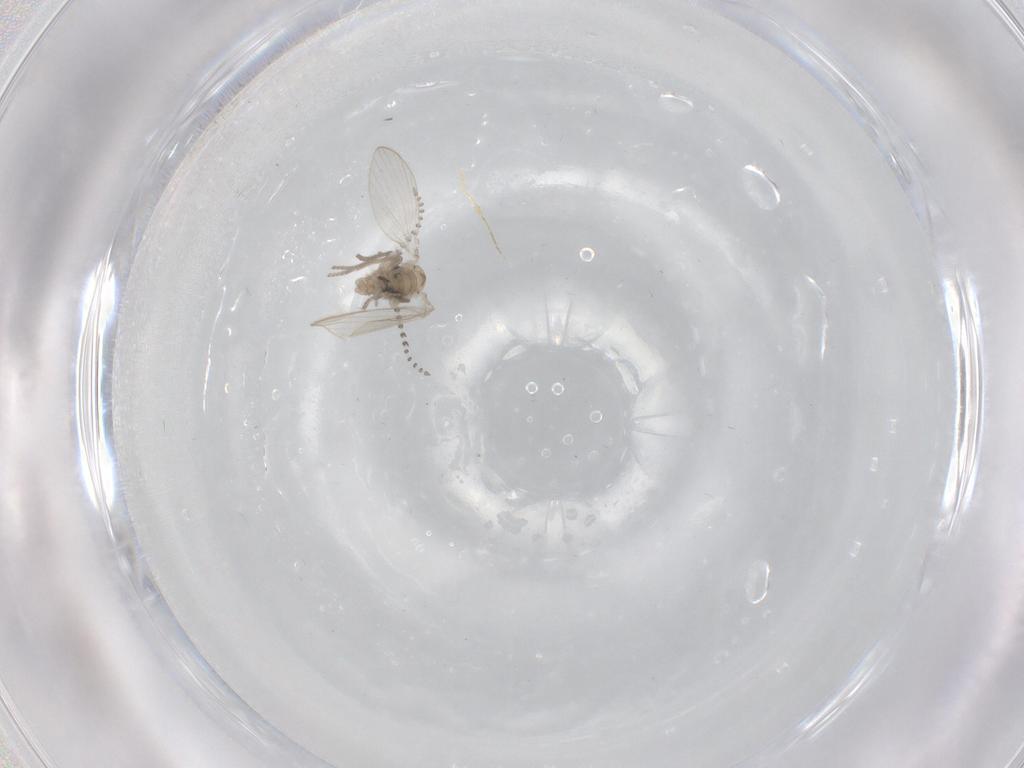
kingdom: Animalia
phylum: Arthropoda
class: Insecta
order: Diptera
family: Psychodidae
